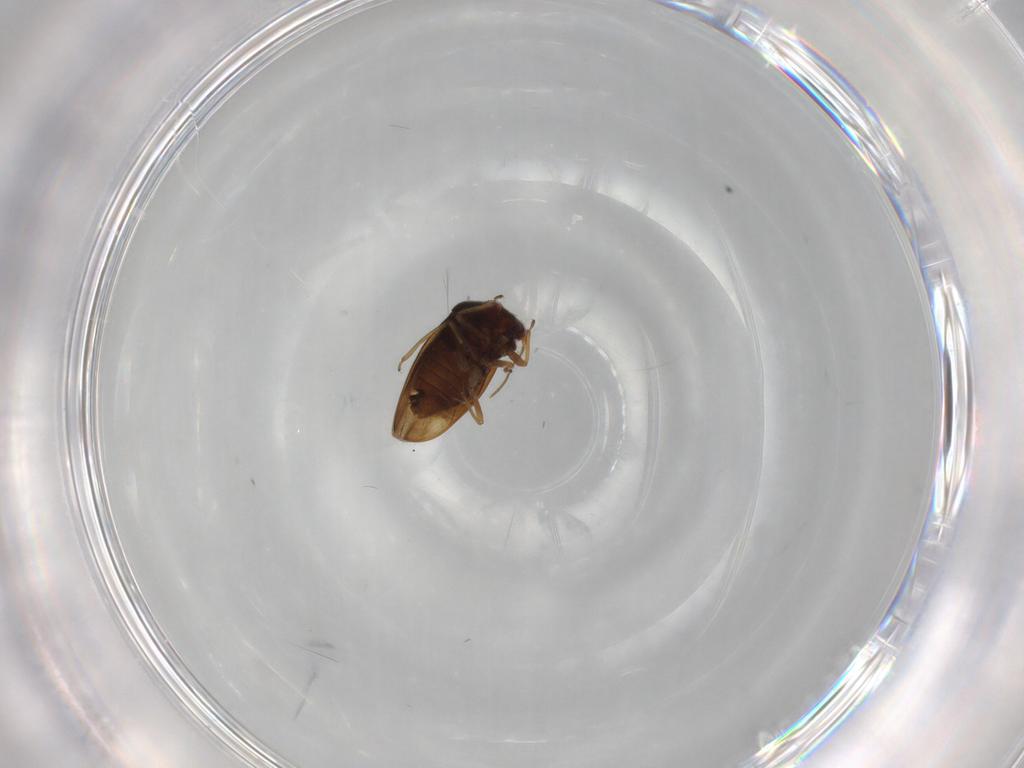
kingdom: Animalia
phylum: Arthropoda
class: Insecta
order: Hemiptera
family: Schizopteridae
